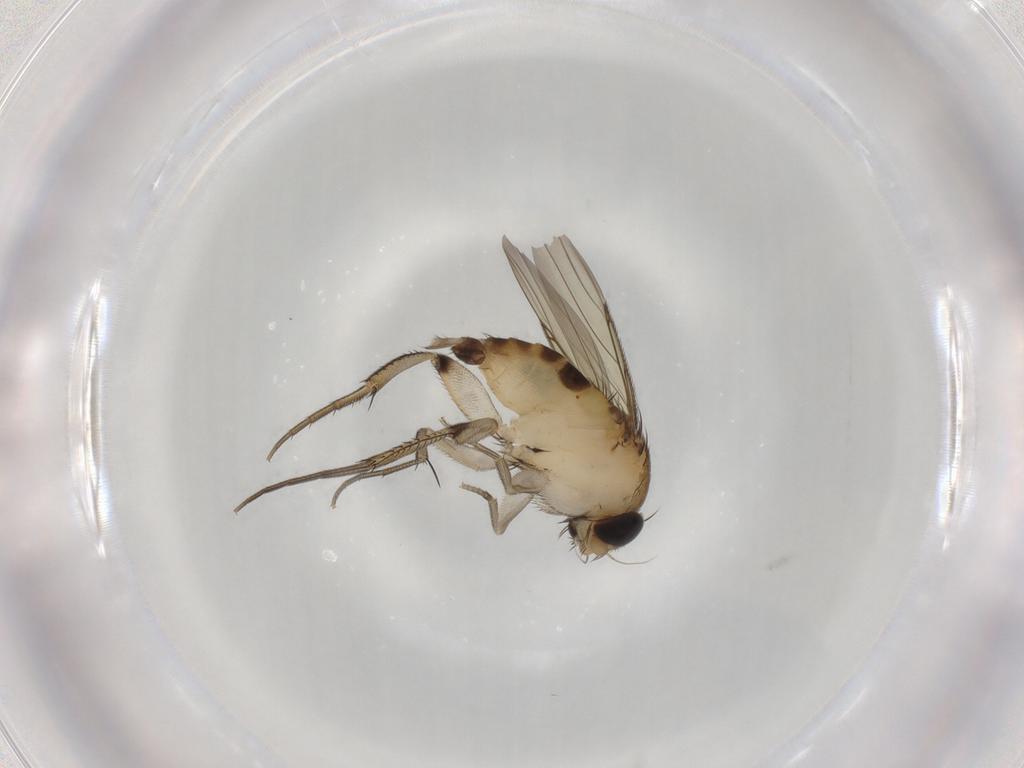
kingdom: Animalia
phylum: Arthropoda
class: Insecta
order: Diptera
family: Phoridae
